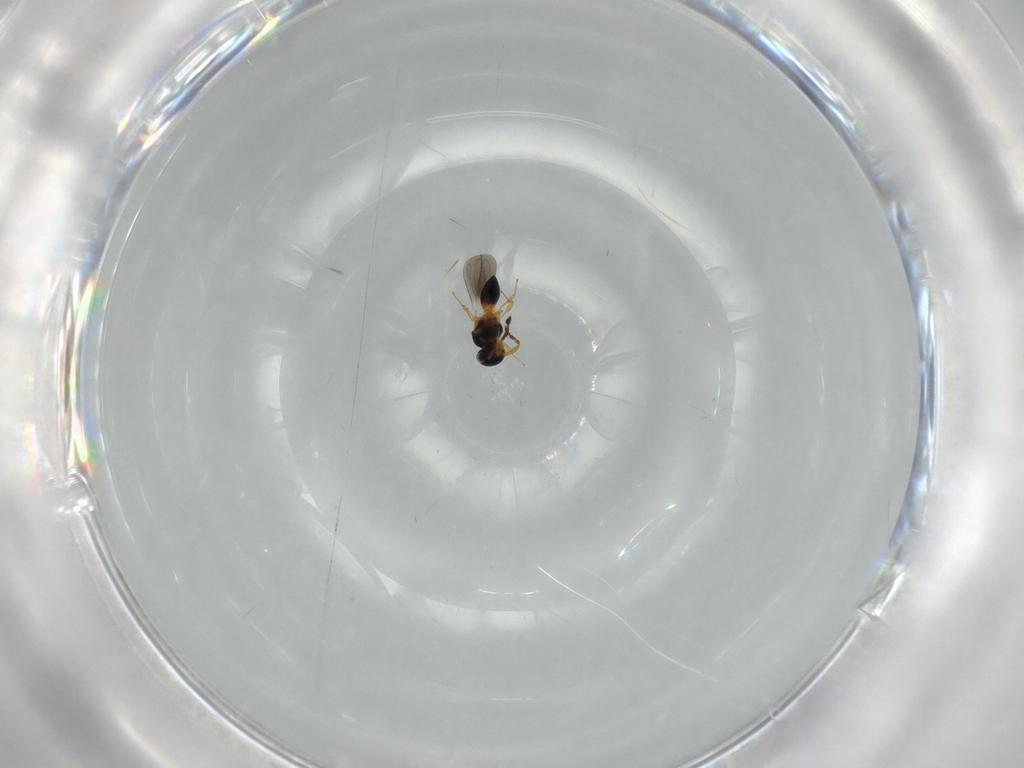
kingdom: Animalia
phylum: Arthropoda
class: Insecta
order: Hymenoptera
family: Platygastridae
